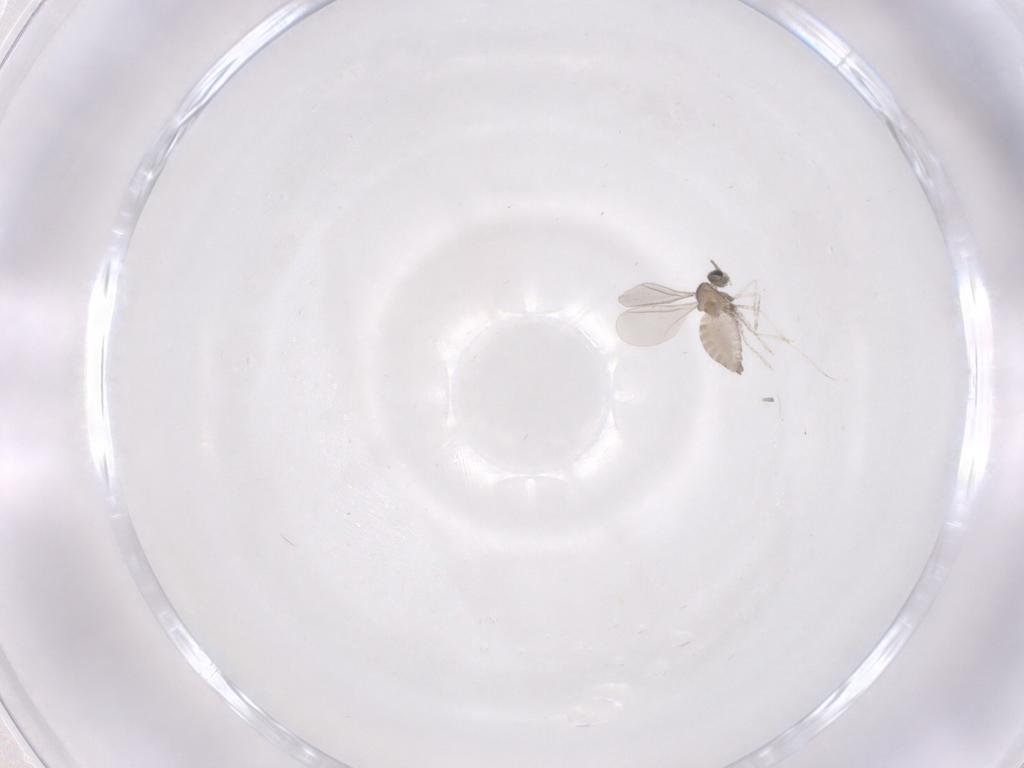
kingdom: Animalia
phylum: Arthropoda
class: Insecta
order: Diptera
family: Cecidomyiidae
